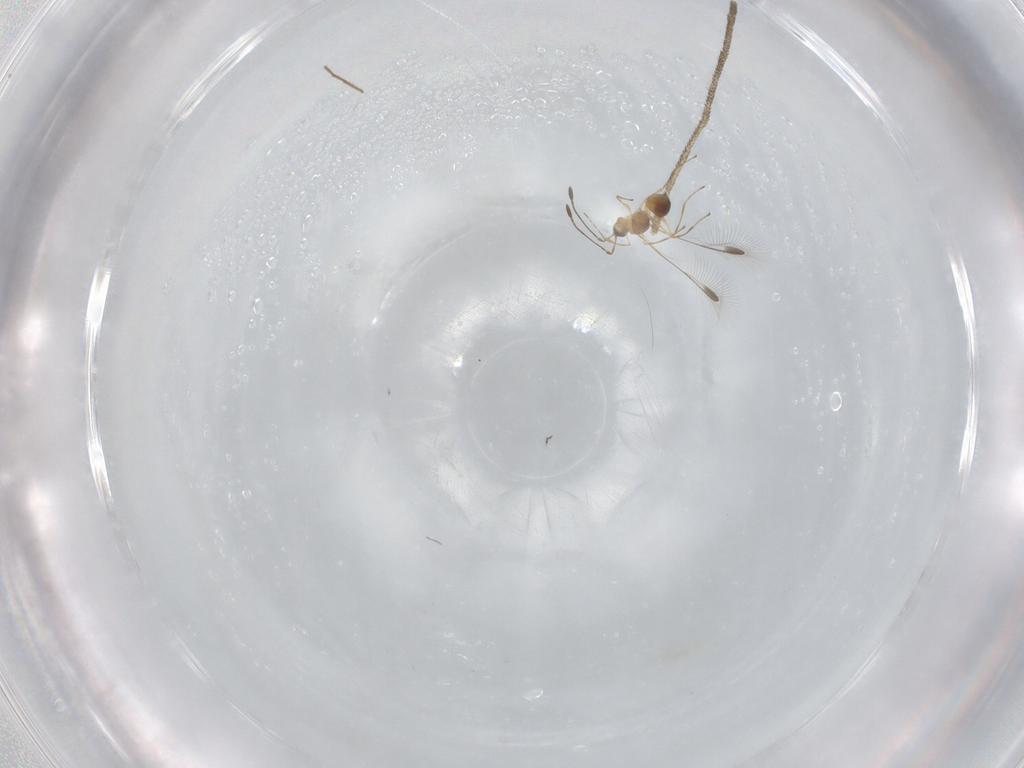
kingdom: Animalia
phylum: Arthropoda
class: Insecta
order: Hymenoptera
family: Mymaridae
